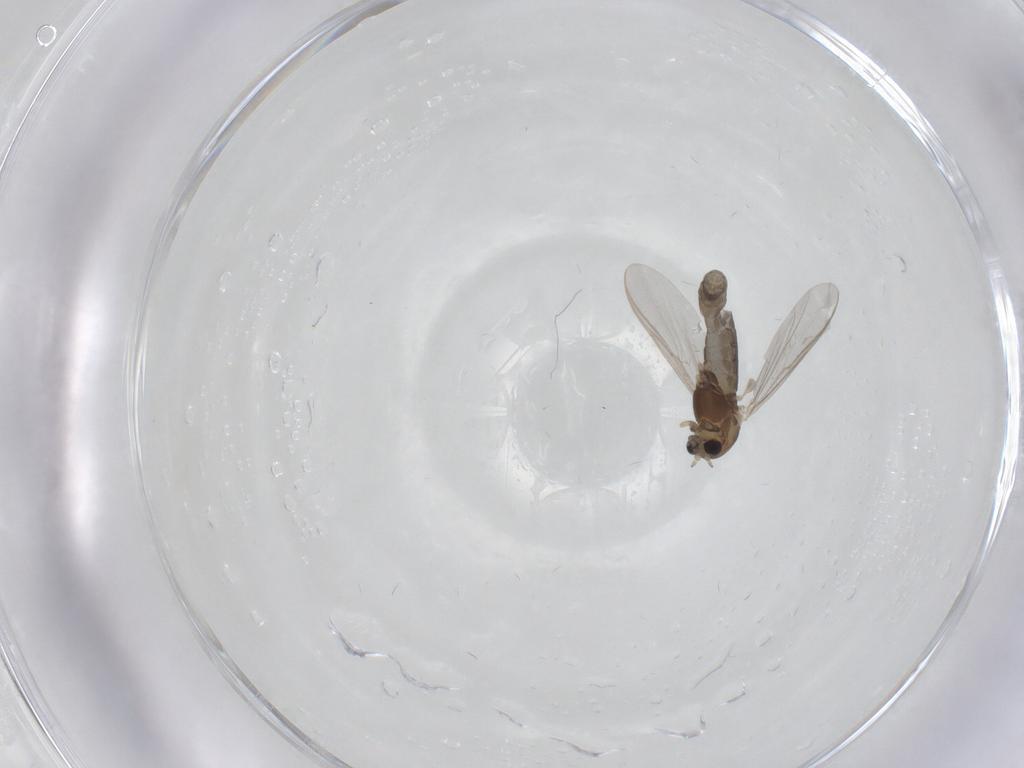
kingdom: Animalia
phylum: Arthropoda
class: Insecta
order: Diptera
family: Chironomidae
